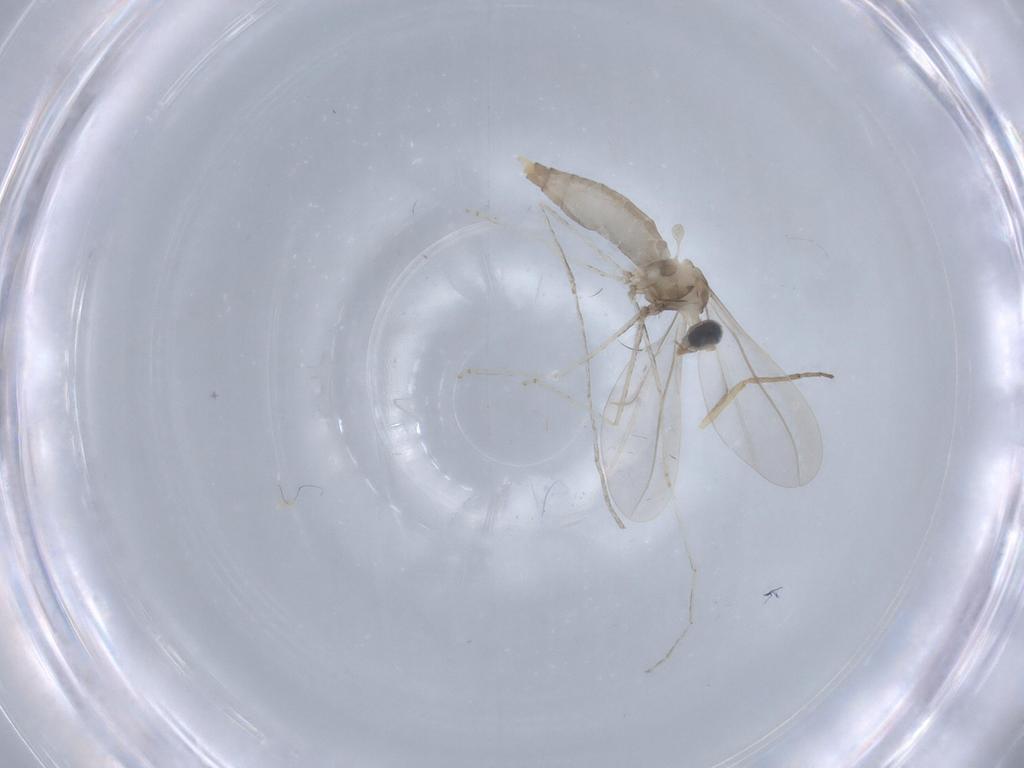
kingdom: Animalia
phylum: Arthropoda
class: Insecta
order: Diptera
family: Cecidomyiidae
